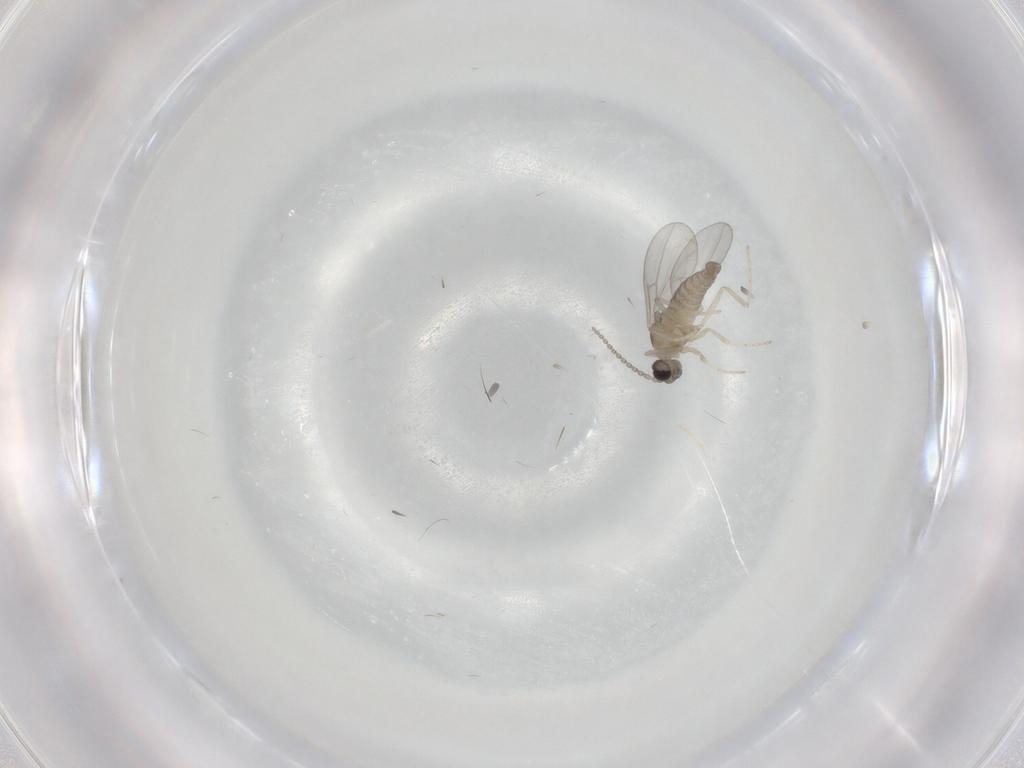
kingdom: Animalia
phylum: Arthropoda
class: Insecta
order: Diptera
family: Cecidomyiidae
